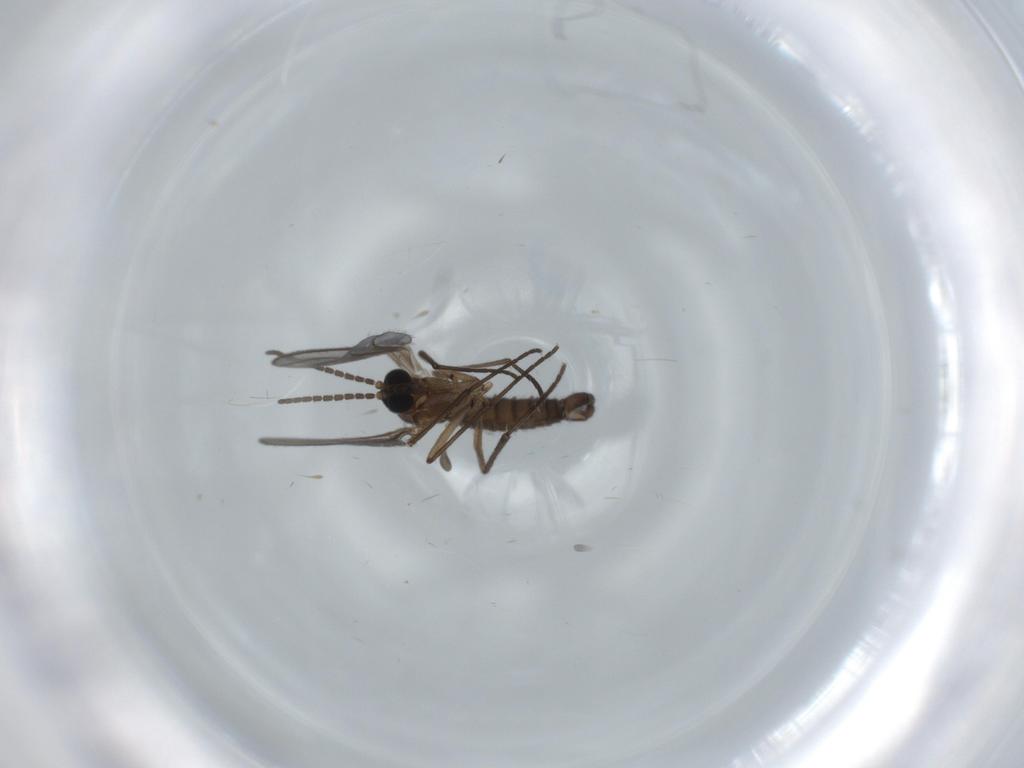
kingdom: Animalia
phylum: Arthropoda
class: Insecta
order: Diptera
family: Sciaridae
